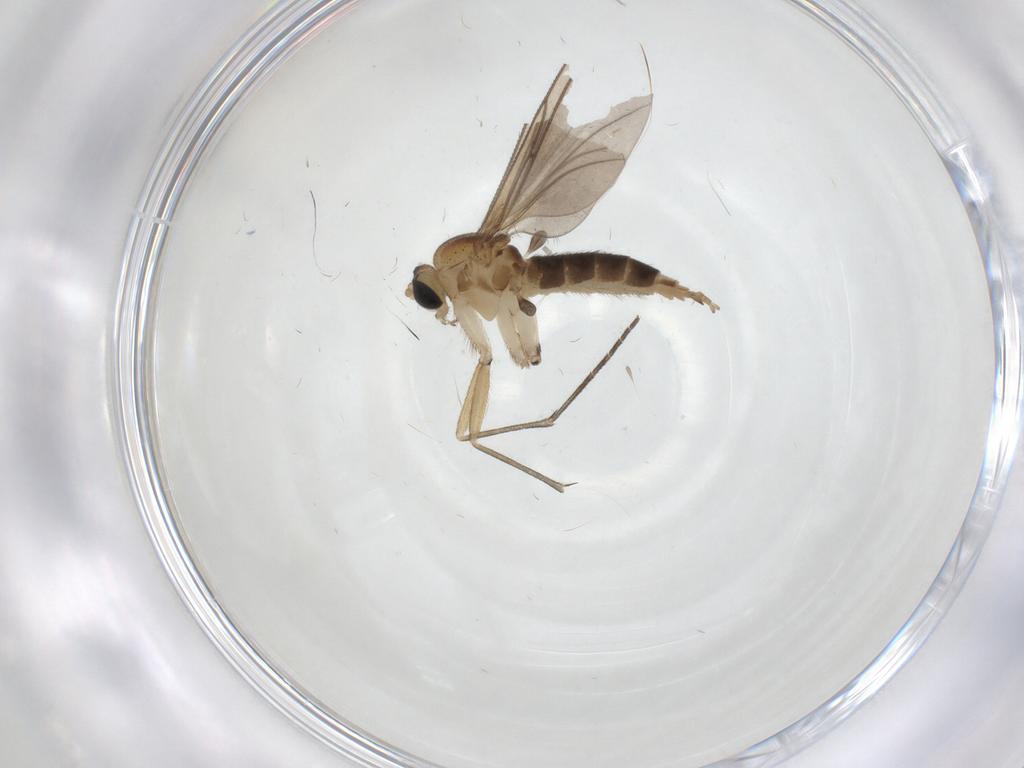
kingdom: Animalia
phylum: Arthropoda
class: Insecta
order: Diptera
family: Sciaridae
